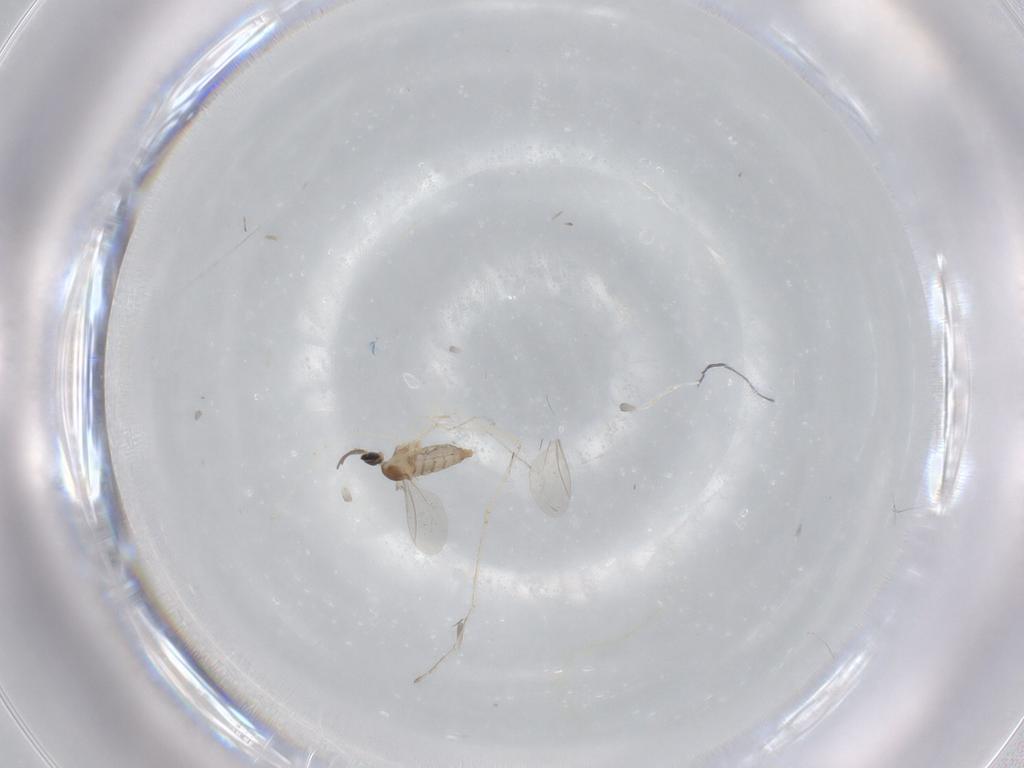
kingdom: Animalia
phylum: Arthropoda
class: Insecta
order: Diptera
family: Cecidomyiidae
